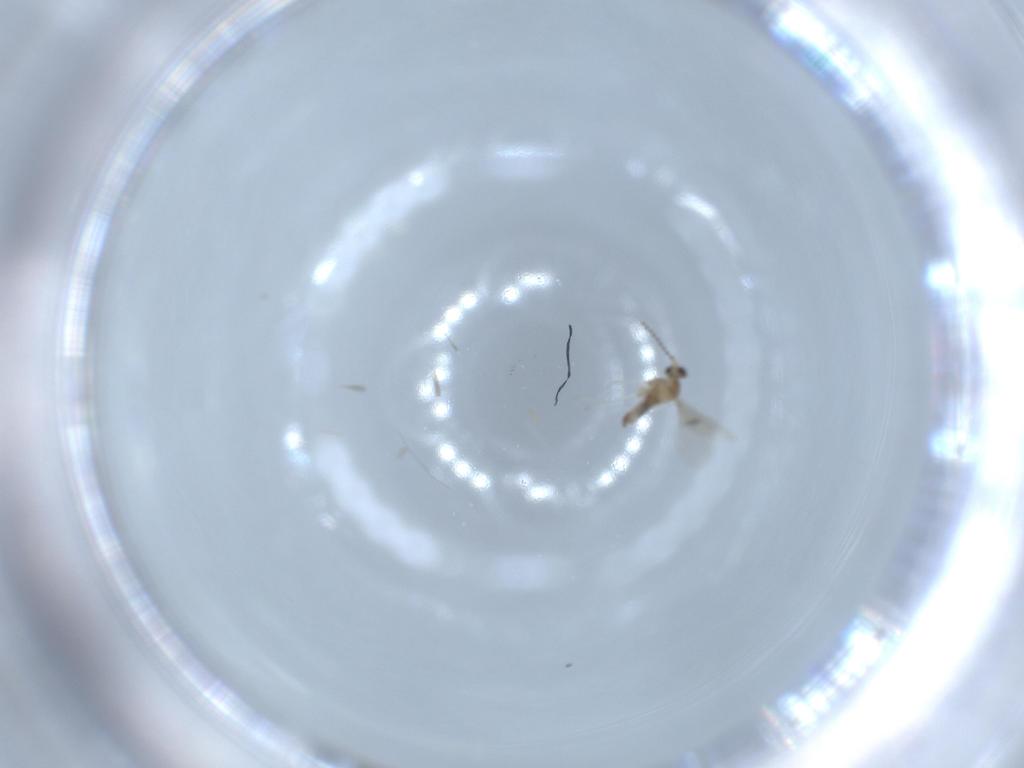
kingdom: Animalia
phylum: Arthropoda
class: Insecta
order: Diptera
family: Cecidomyiidae
